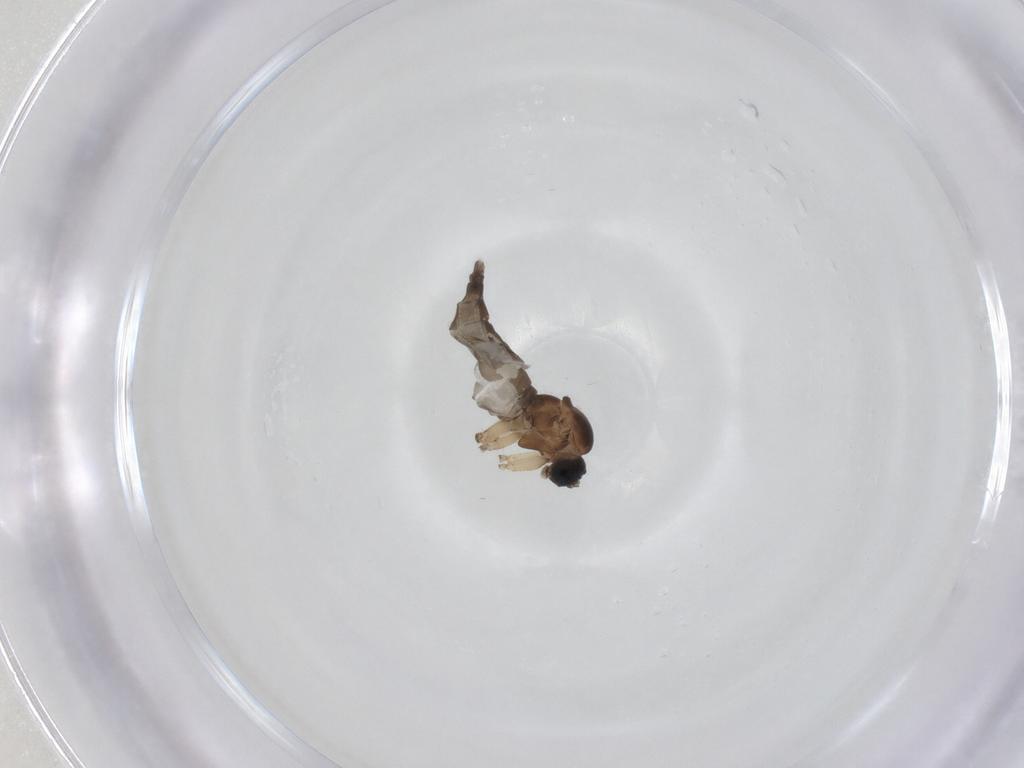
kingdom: Animalia
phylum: Arthropoda
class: Insecta
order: Diptera
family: Sciaridae
